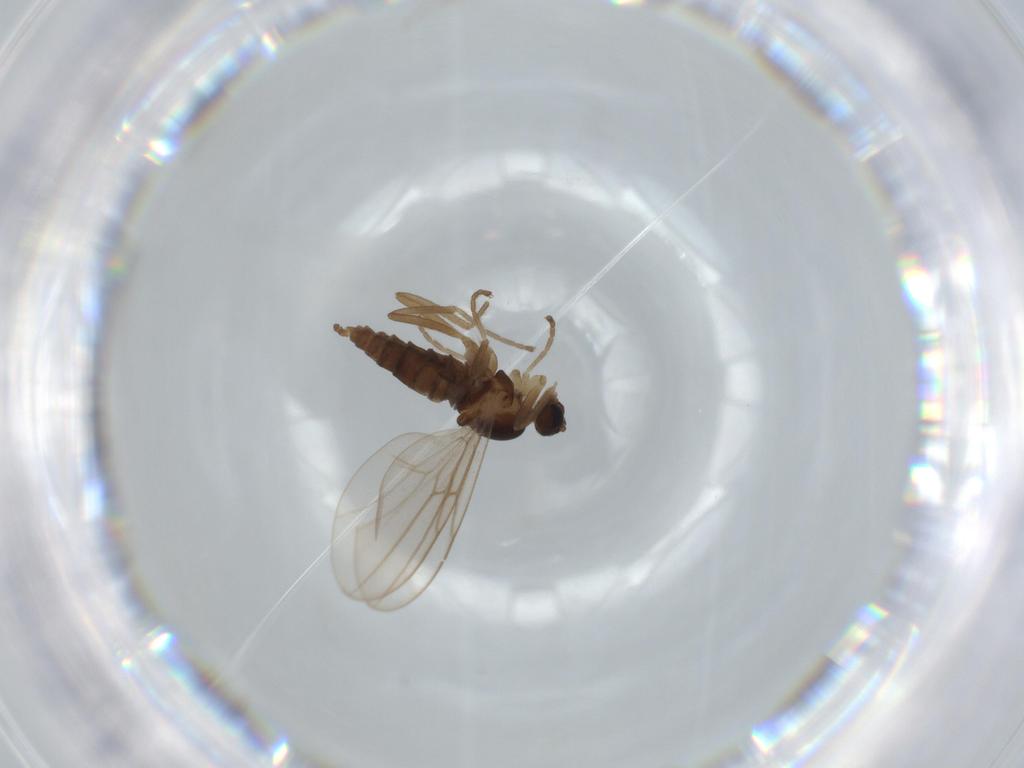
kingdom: Animalia
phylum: Arthropoda
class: Insecta
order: Diptera
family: Cecidomyiidae
